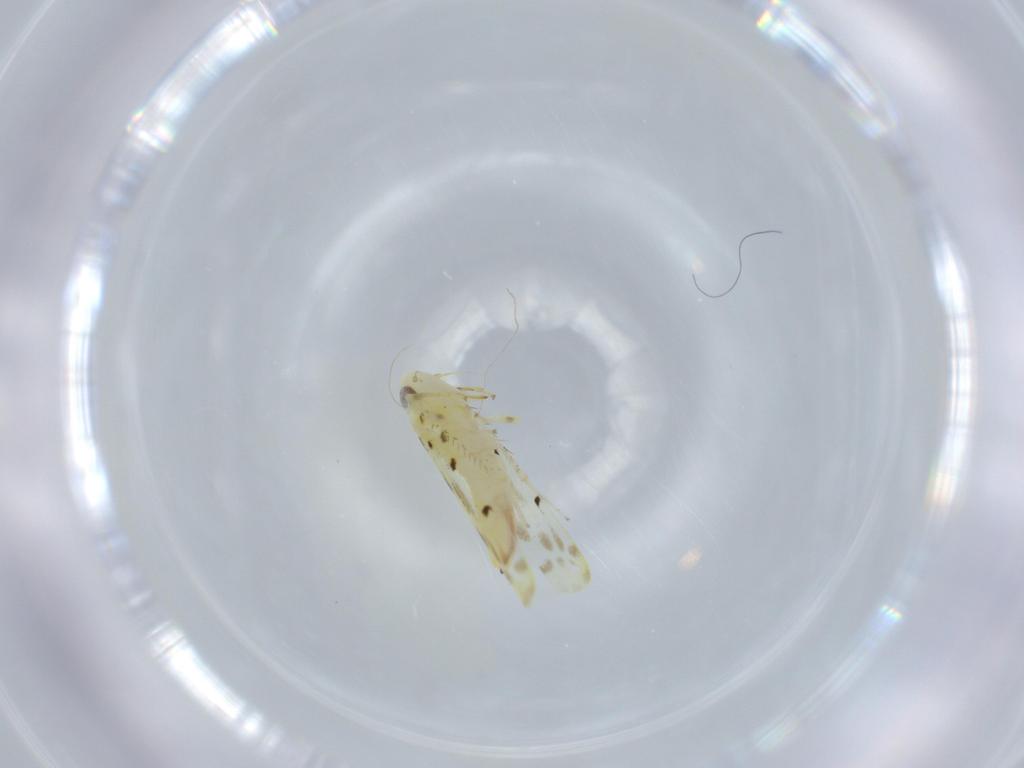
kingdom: Animalia
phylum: Arthropoda
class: Insecta
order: Hemiptera
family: Cicadellidae
